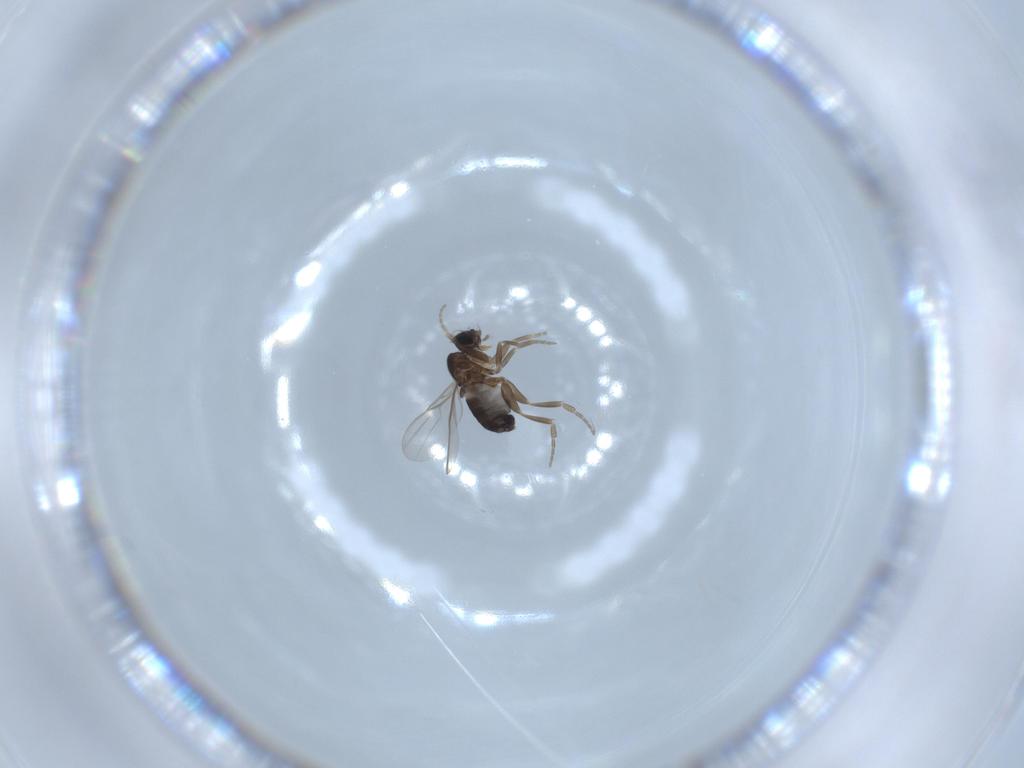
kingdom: Animalia
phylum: Arthropoda
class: Insecta
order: Diptera
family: Phoridae
